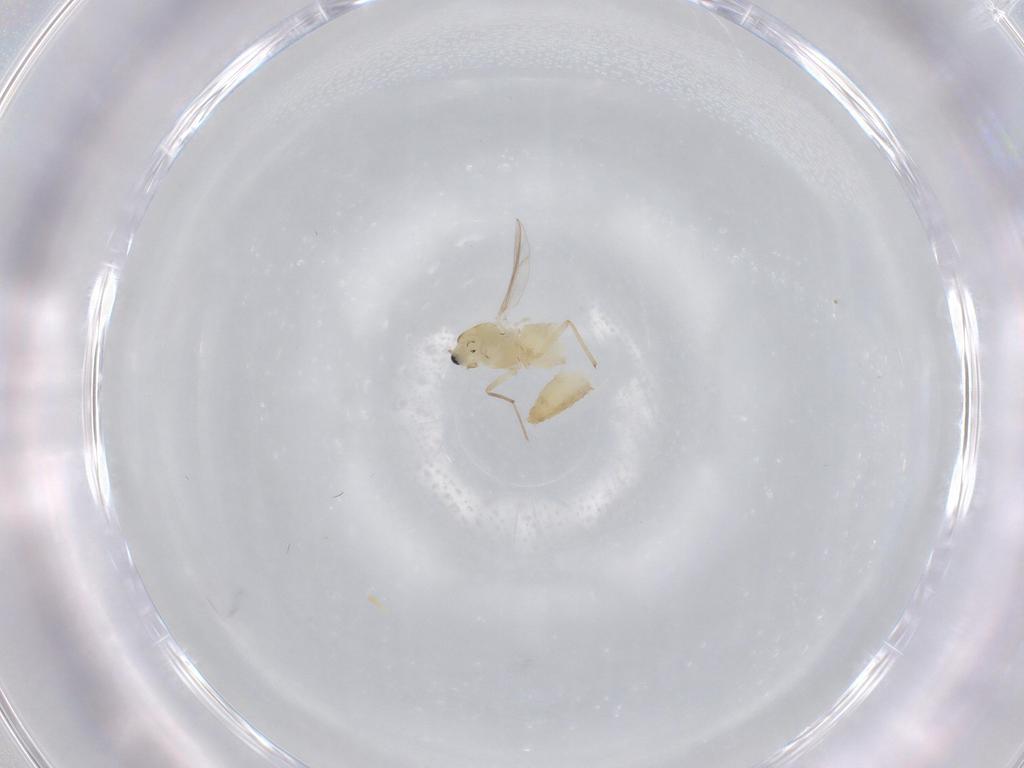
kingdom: Animalia
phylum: Arthropoda
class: Insecta
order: Diptera
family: Chironomidae
